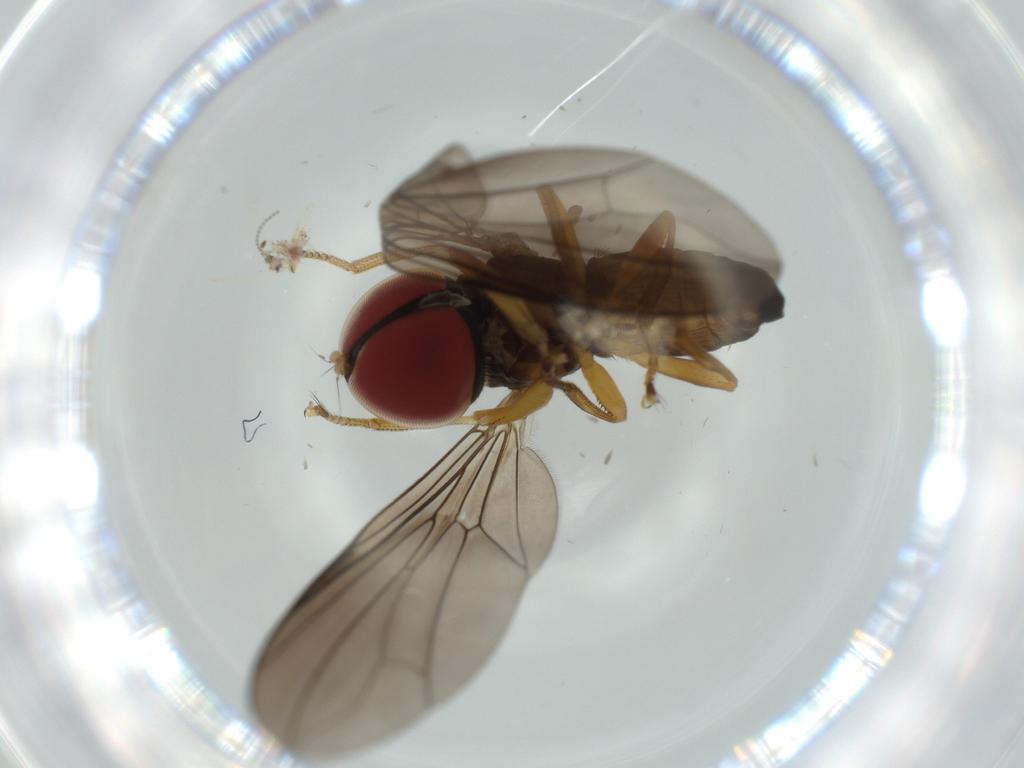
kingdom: Animalia
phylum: Arthropoda
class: Insecta
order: Diptera
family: Pipunculidae
